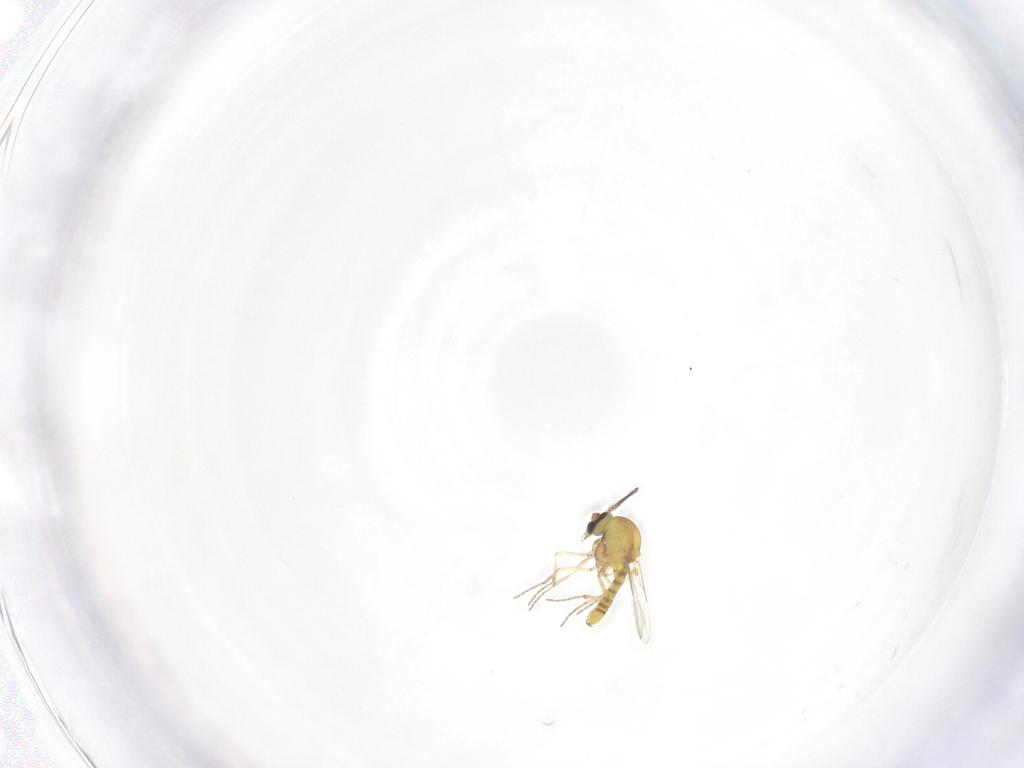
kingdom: Animalia
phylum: Arthropoda
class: Insecta
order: Diptera
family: Ceratopogonidae
